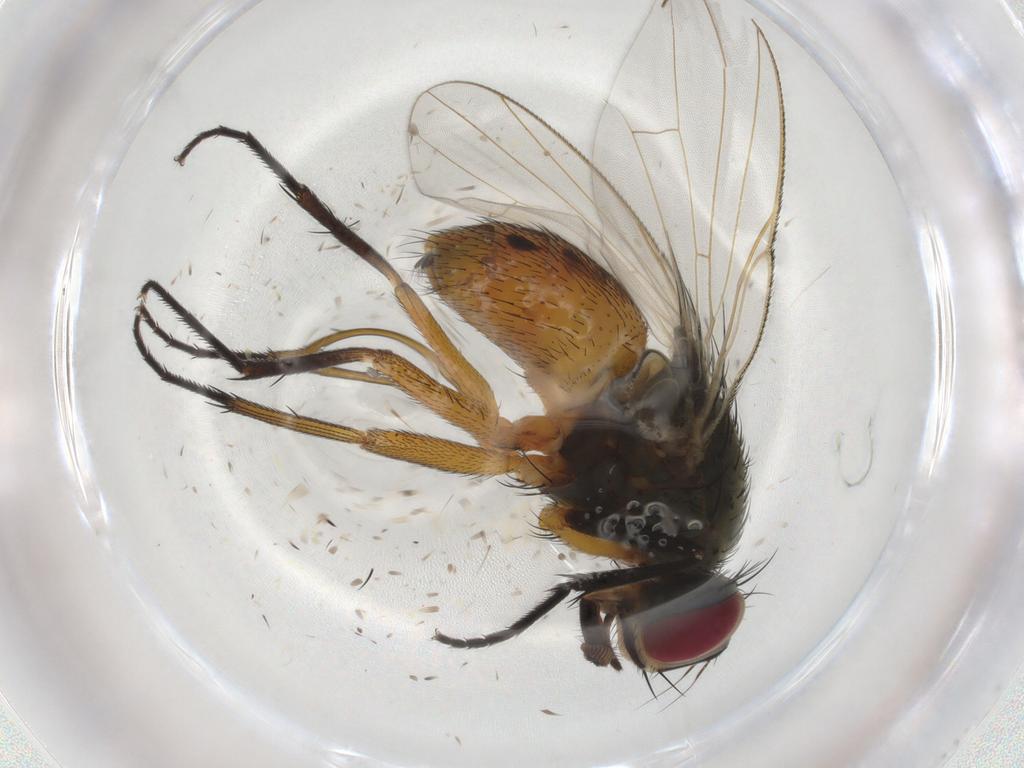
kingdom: Animalia
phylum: Arthropoda
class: Insecta
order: Diptera
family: Muscidae
